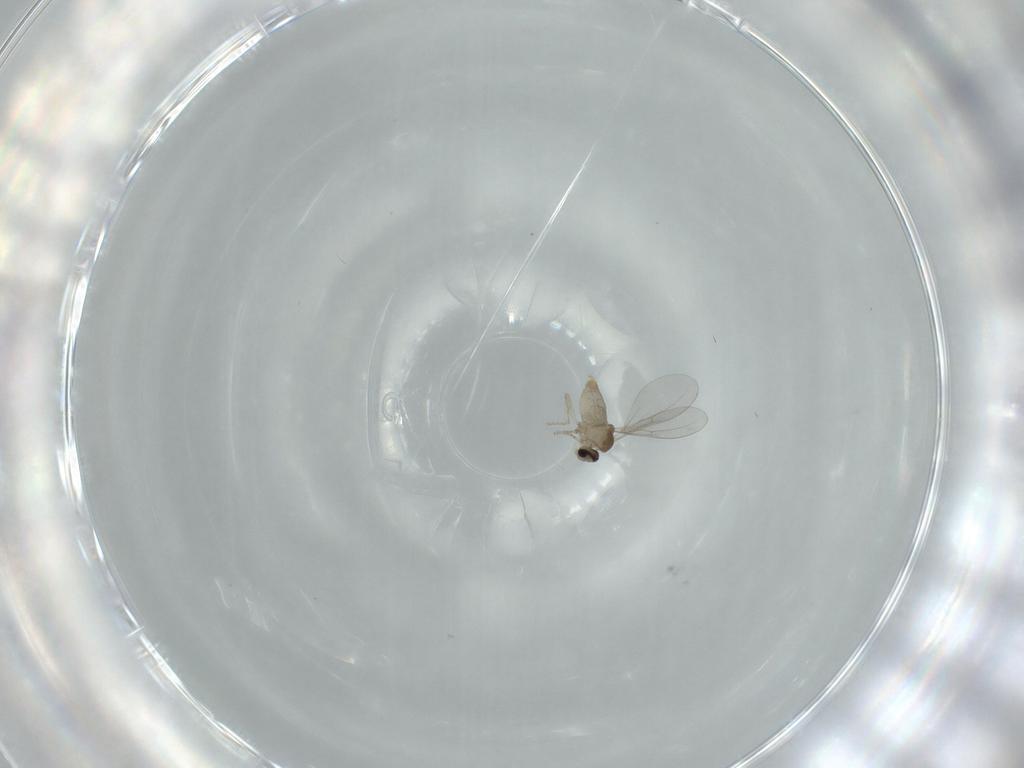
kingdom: Animalia
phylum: Arthropoda
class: Insecta
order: Diptera
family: Cecidomyiidae
